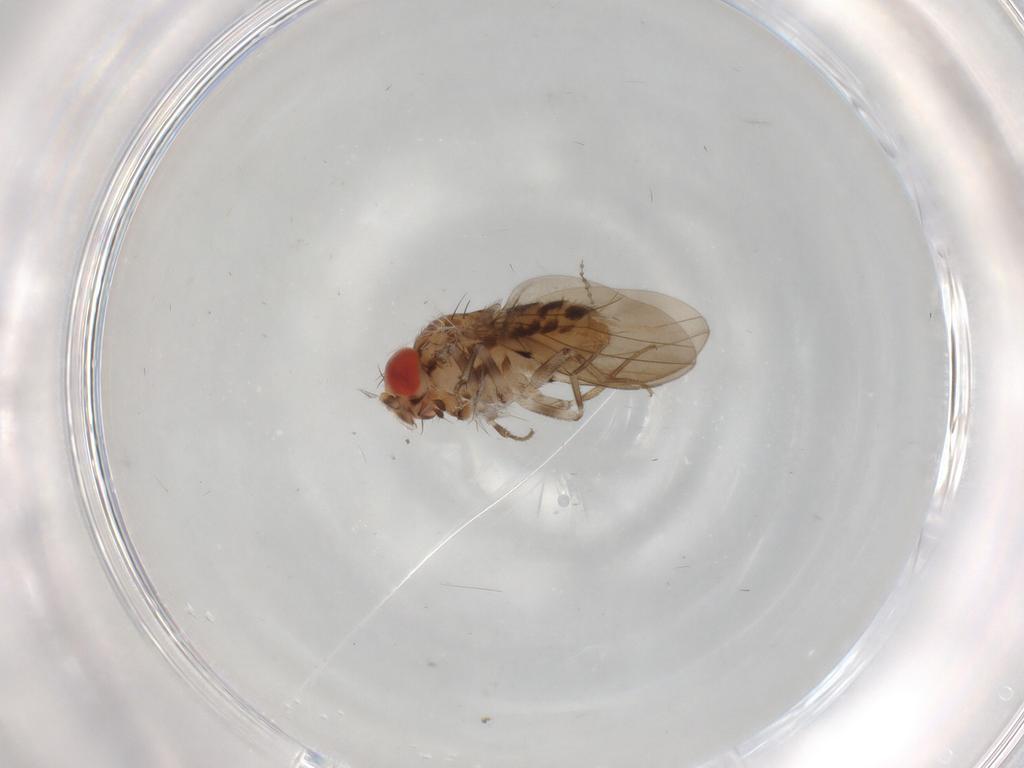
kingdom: Animalia
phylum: Arthropoda
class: Insecta
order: Diptera
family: Drosophilidae
